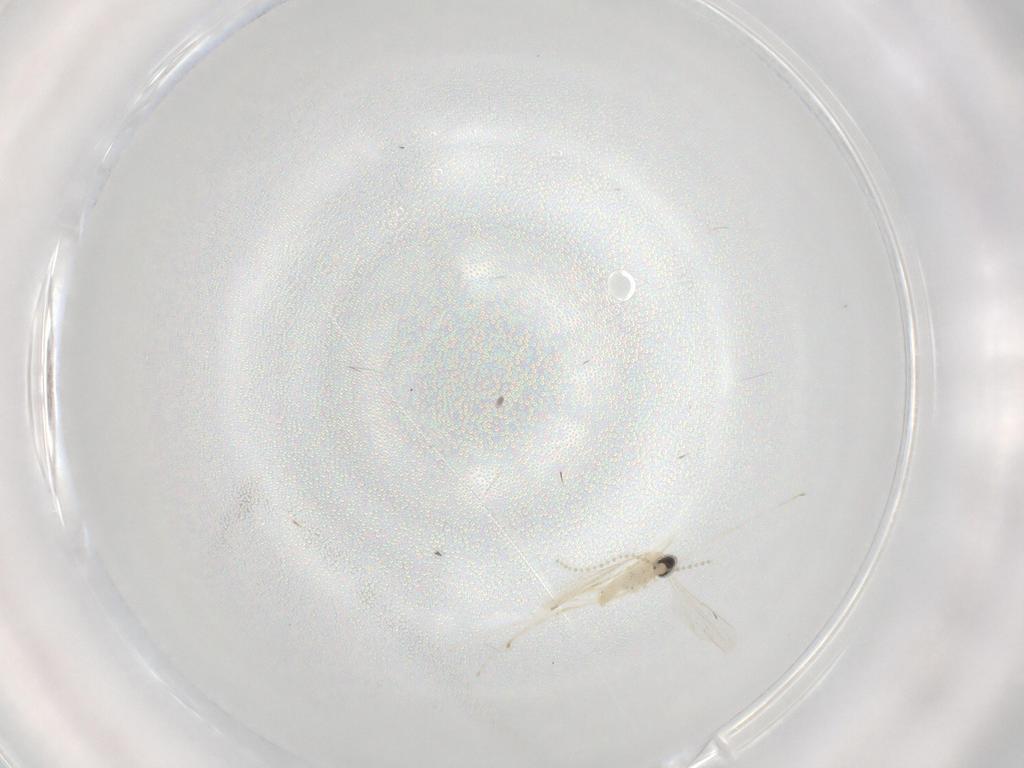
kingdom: Animalia
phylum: Arthropoda
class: Insecta
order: Diptera
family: Cecidomyiidae
